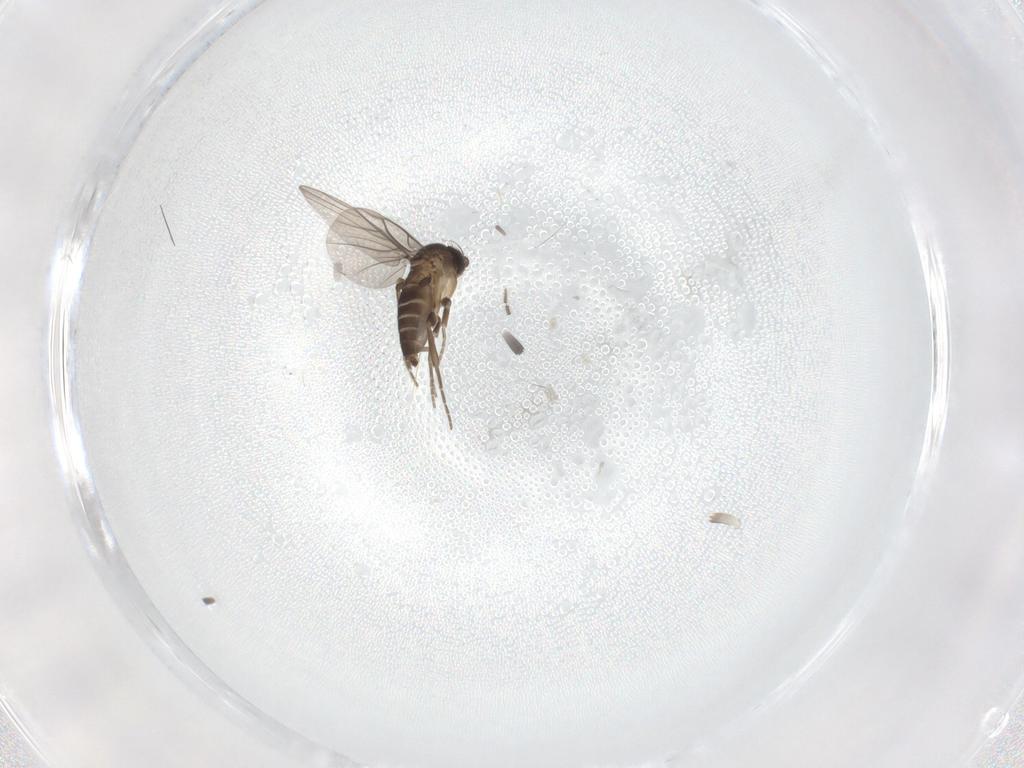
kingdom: Animalia
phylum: Arthropoda
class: Insecta
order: Diptera
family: Phoridae
